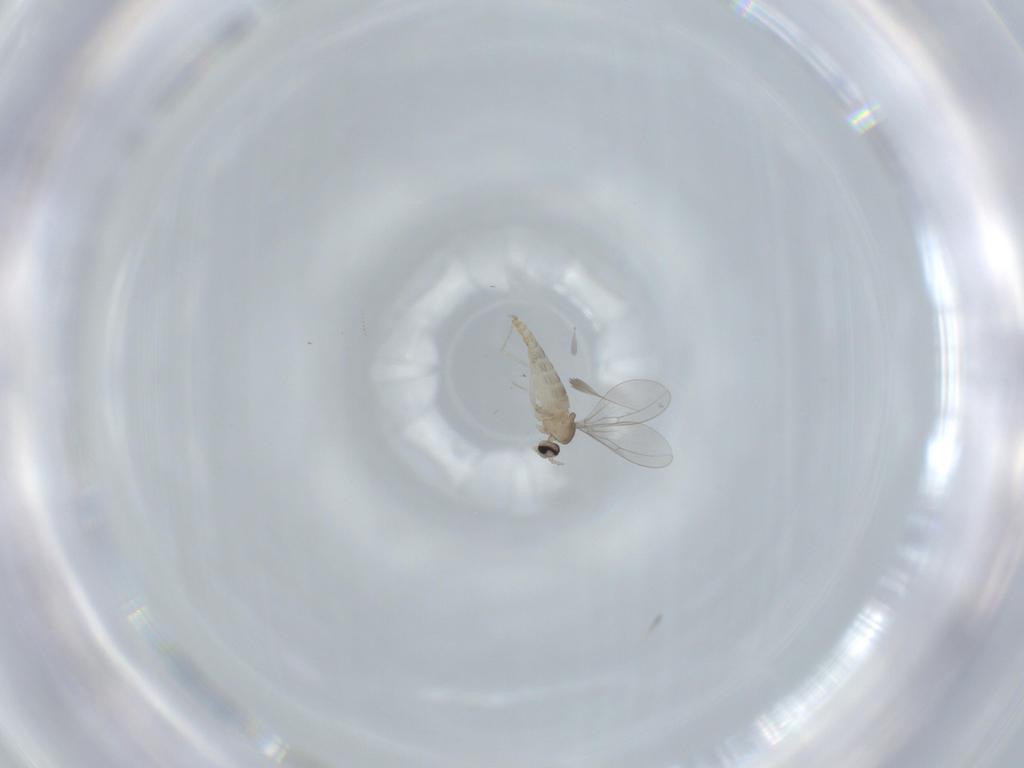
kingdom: Animalia
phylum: Arthropoda
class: Insecta
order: Diptera
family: Cecidomyiidae
